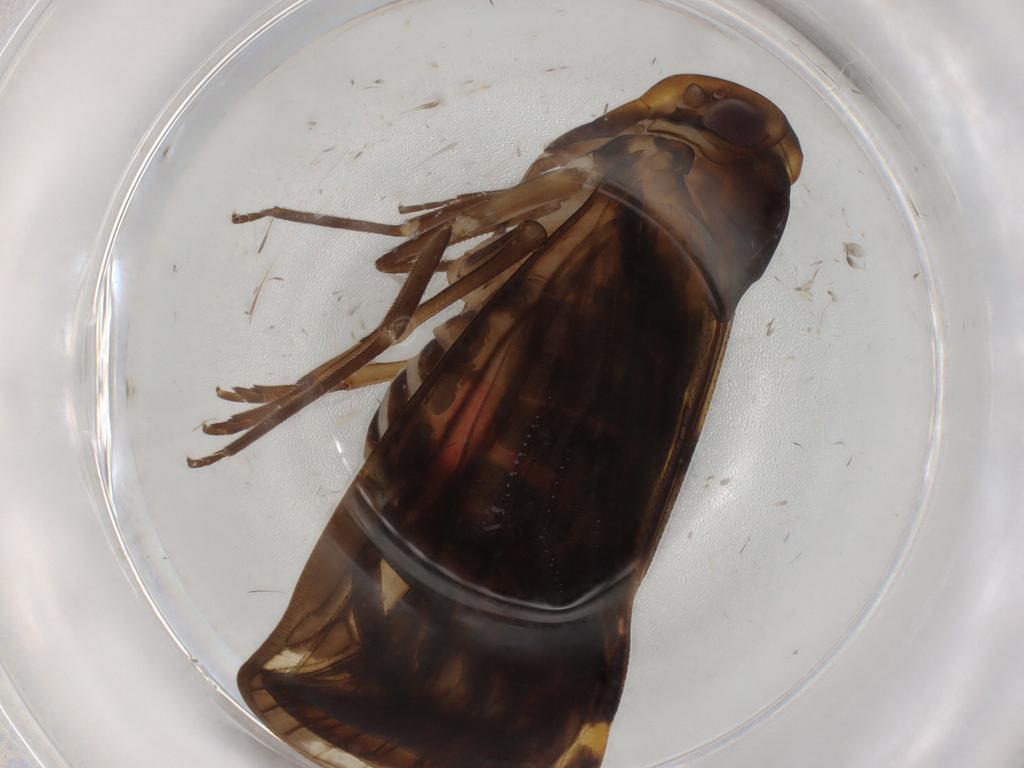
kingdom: Animalia
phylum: Arthropoda
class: Insecta
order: Hemiptera
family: Cixiidae
